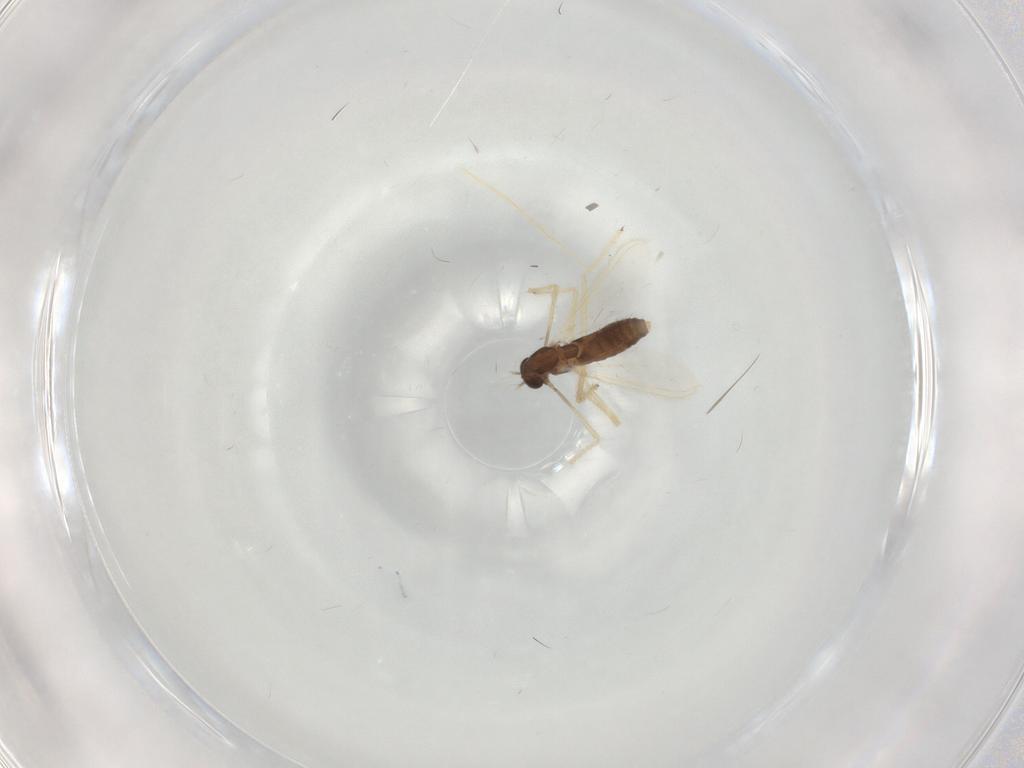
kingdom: Animalia
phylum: Arthropoda
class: Insecta
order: Diptera
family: Chironomidae
